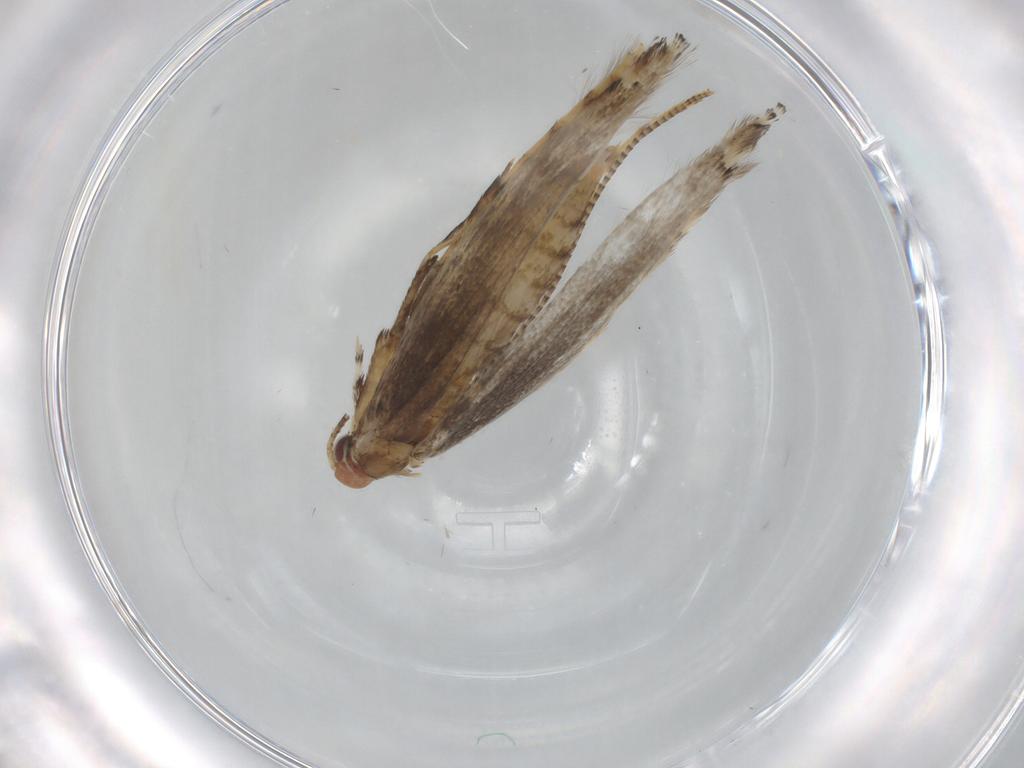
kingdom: Animalia
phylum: Arthropoda
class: Insecta
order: Lepidoptera
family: Gracillariidae
